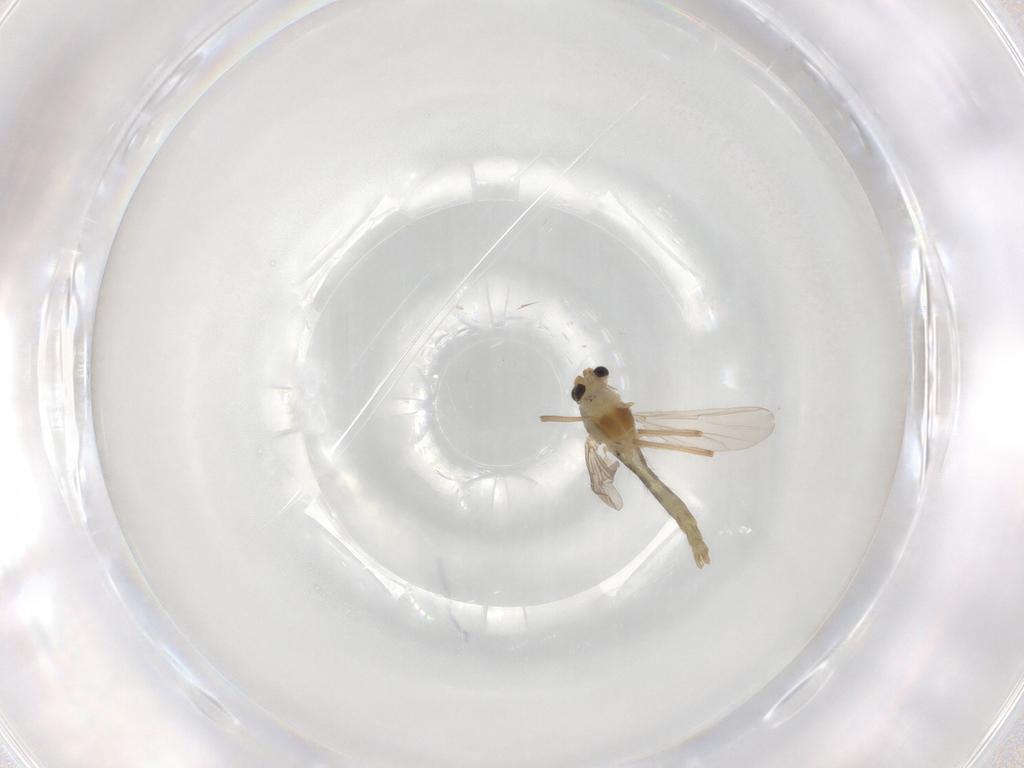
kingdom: Animalia
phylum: Arthropoda
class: Insecta
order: Diptera
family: Chironomidae
